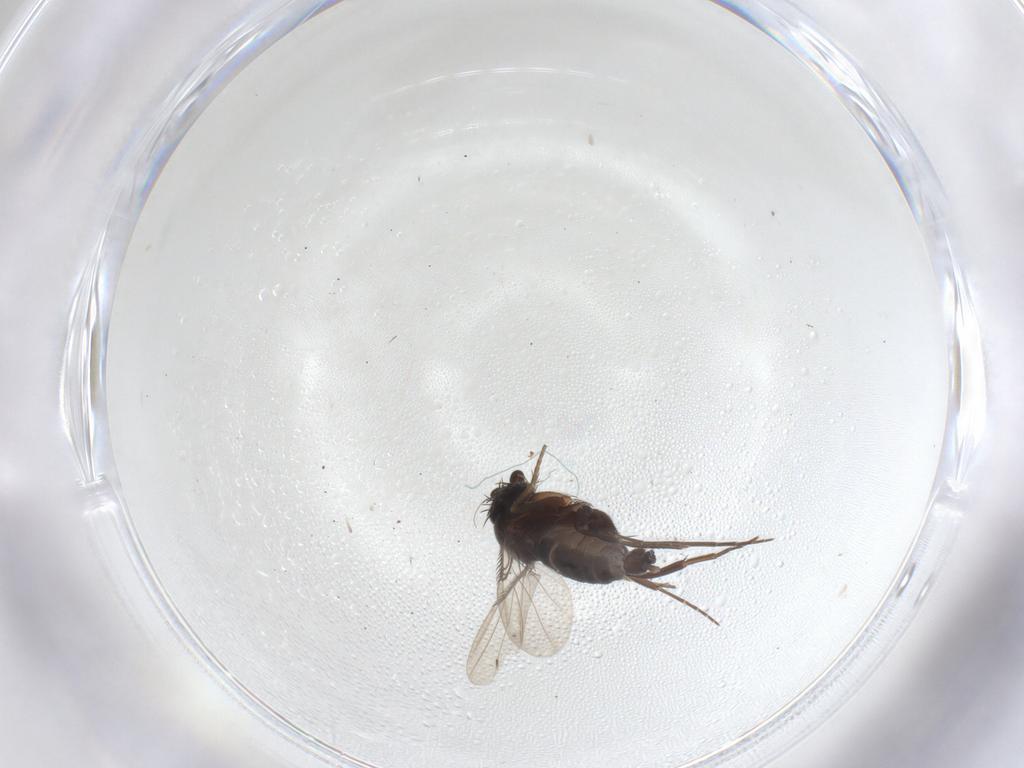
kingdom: Animalia
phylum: Arthropoda
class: Insecta
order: Diptera
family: Phoridae
